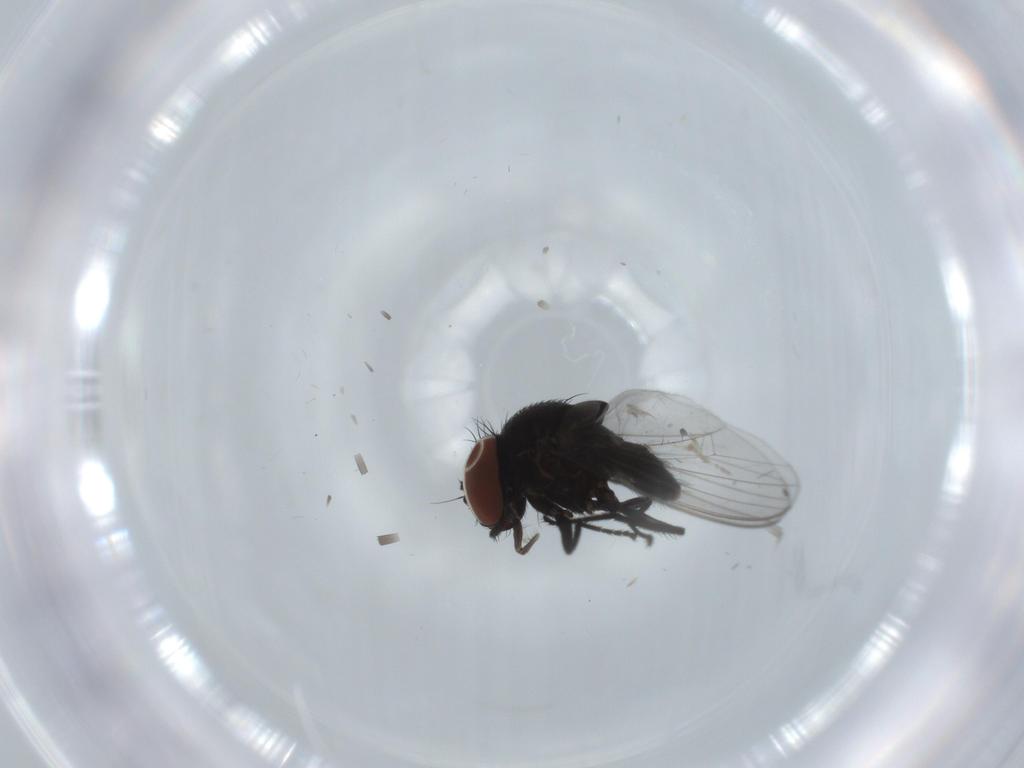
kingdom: Animalia
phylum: Arthropoda
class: Insecta
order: Diptera
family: Milichiidae
